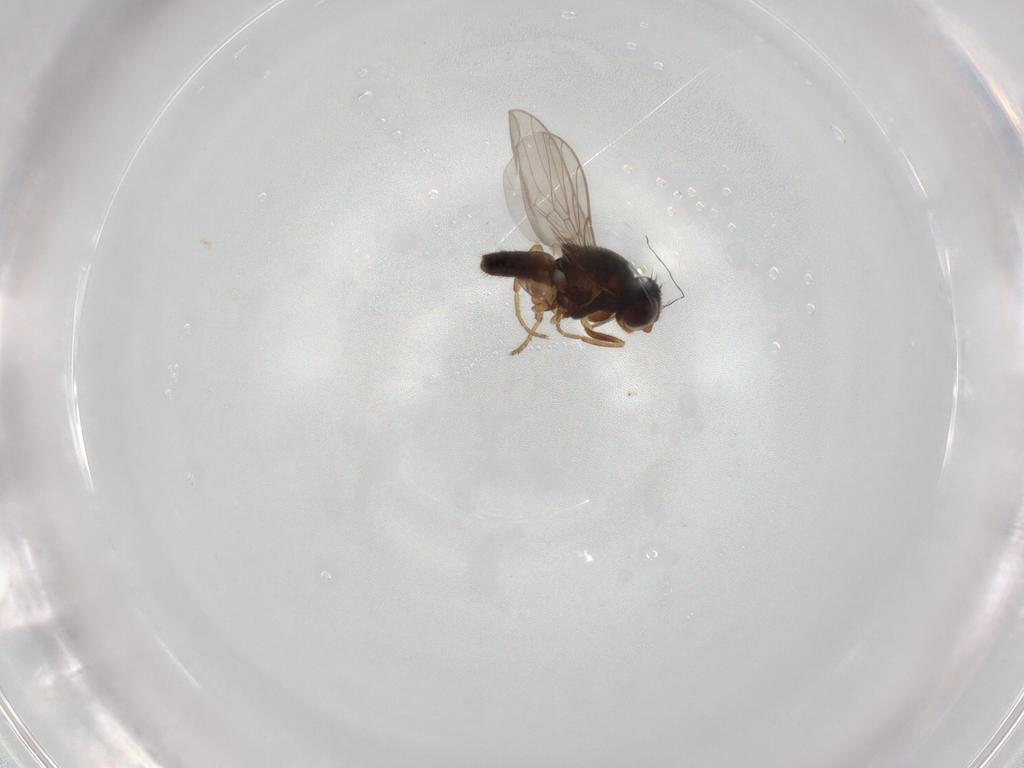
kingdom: Animalia
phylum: Arthropoda
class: Insecta
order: Diptera
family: Chloropidae
